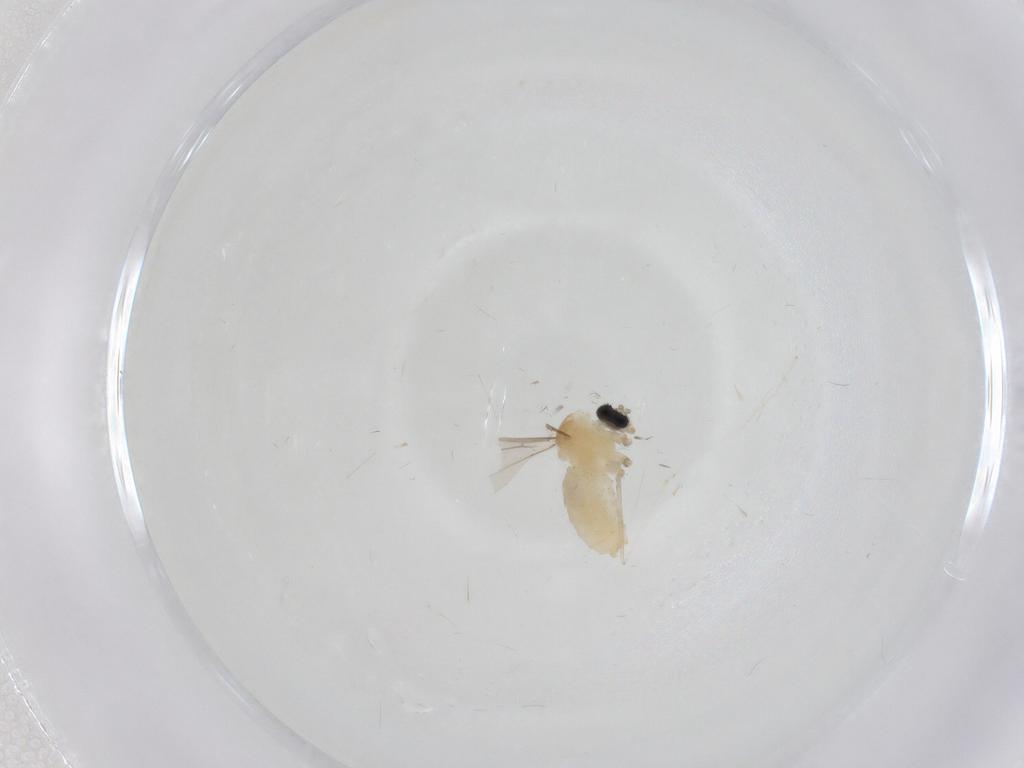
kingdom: Animalia
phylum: Arthropoda
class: Insecta
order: Diptera
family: Cecidomyiidae
